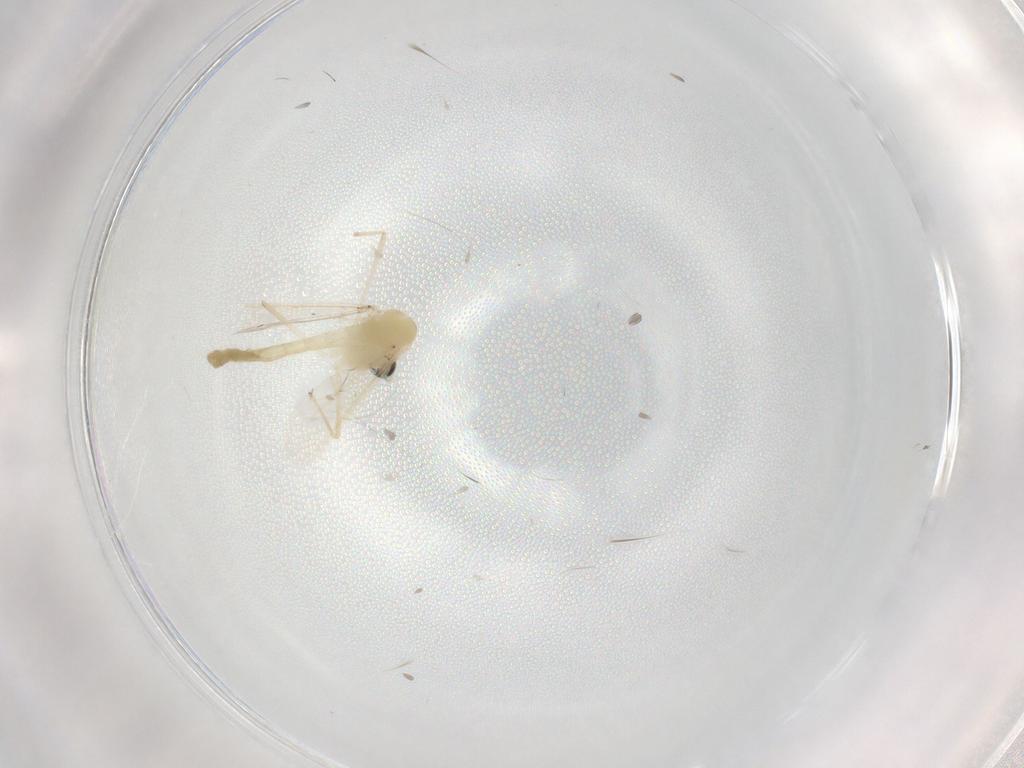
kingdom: Animalia
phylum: Arthropoda
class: Insecta
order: Diptera
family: Chironomidae
